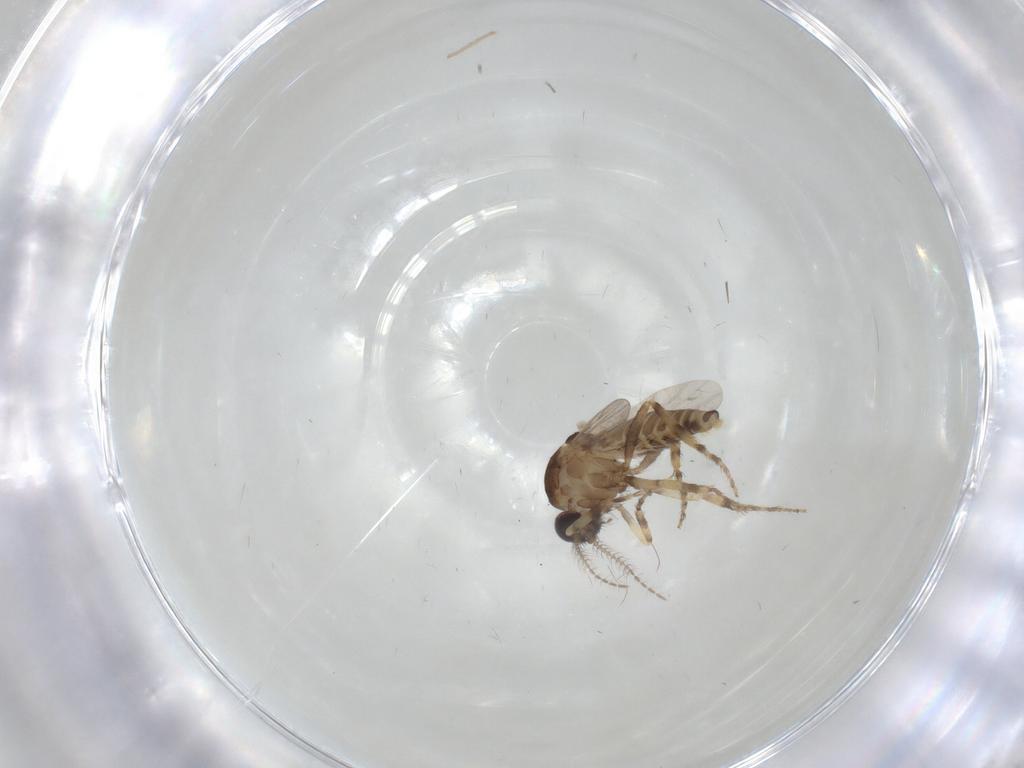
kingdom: Animalia
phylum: Arthropoda
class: Insecta
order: Diptera
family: Ceratopogonidae
